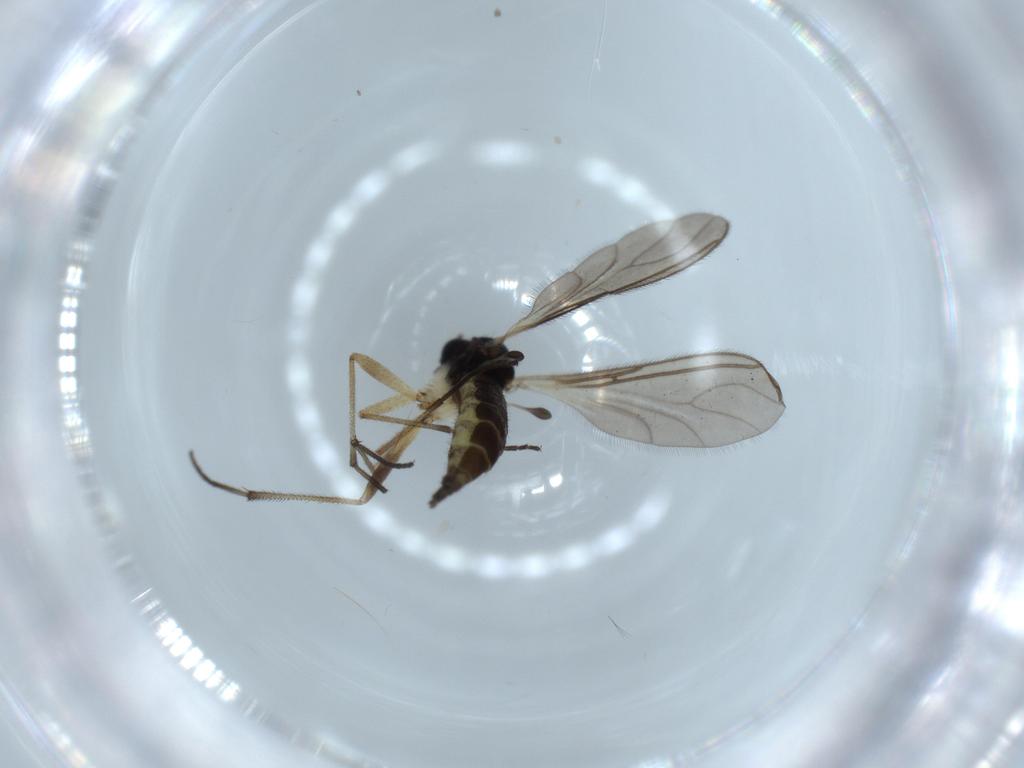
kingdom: Animalia
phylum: Arthropoda
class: Insecta
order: Diptera
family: Sciaridae
